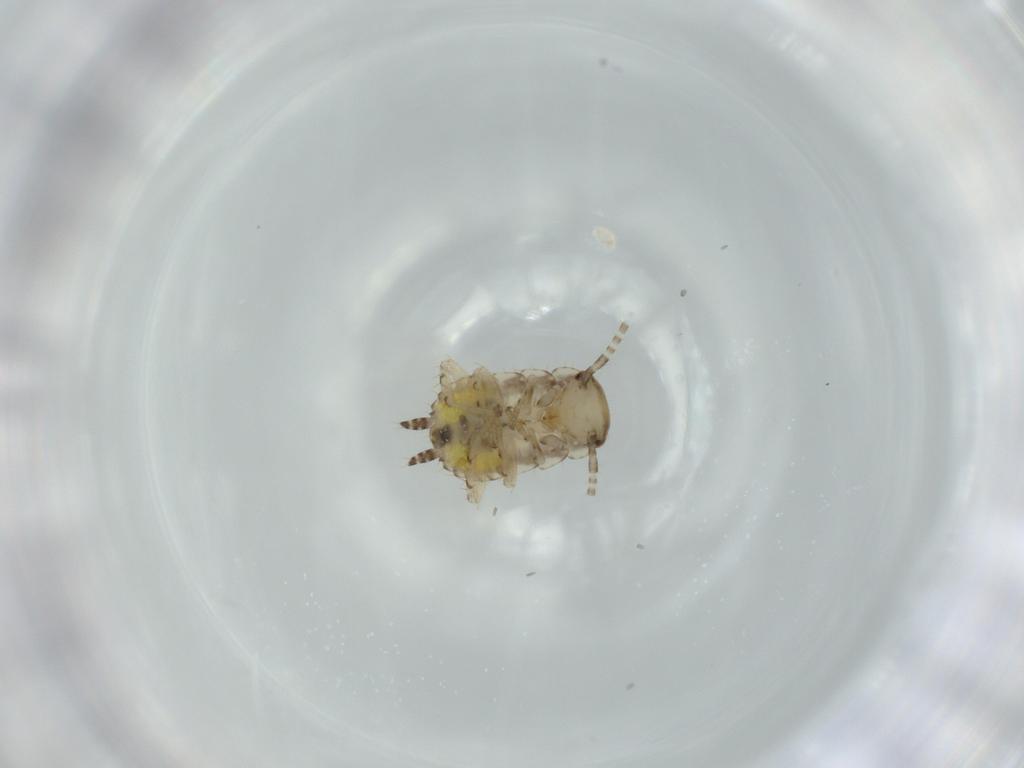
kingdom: Animalia
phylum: Arthropoda
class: Insecta
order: Blattodea
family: Ectobiidae
